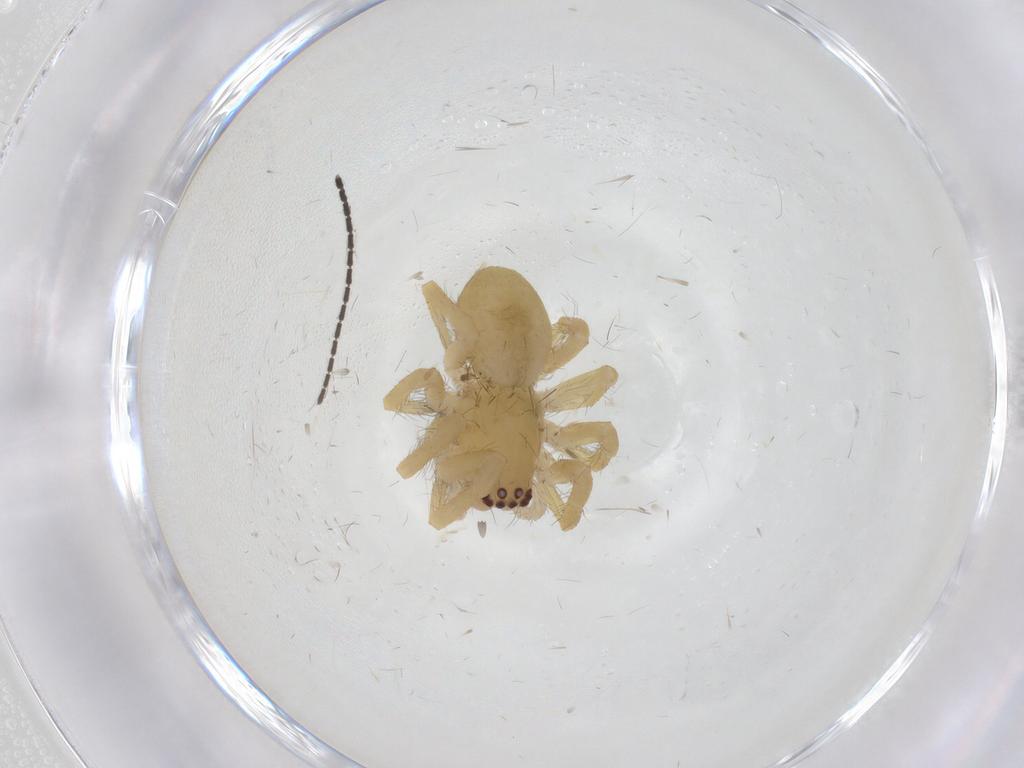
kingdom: Animalia
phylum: Arthropoda
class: Arachnida
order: Araneae
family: Mimetidae
